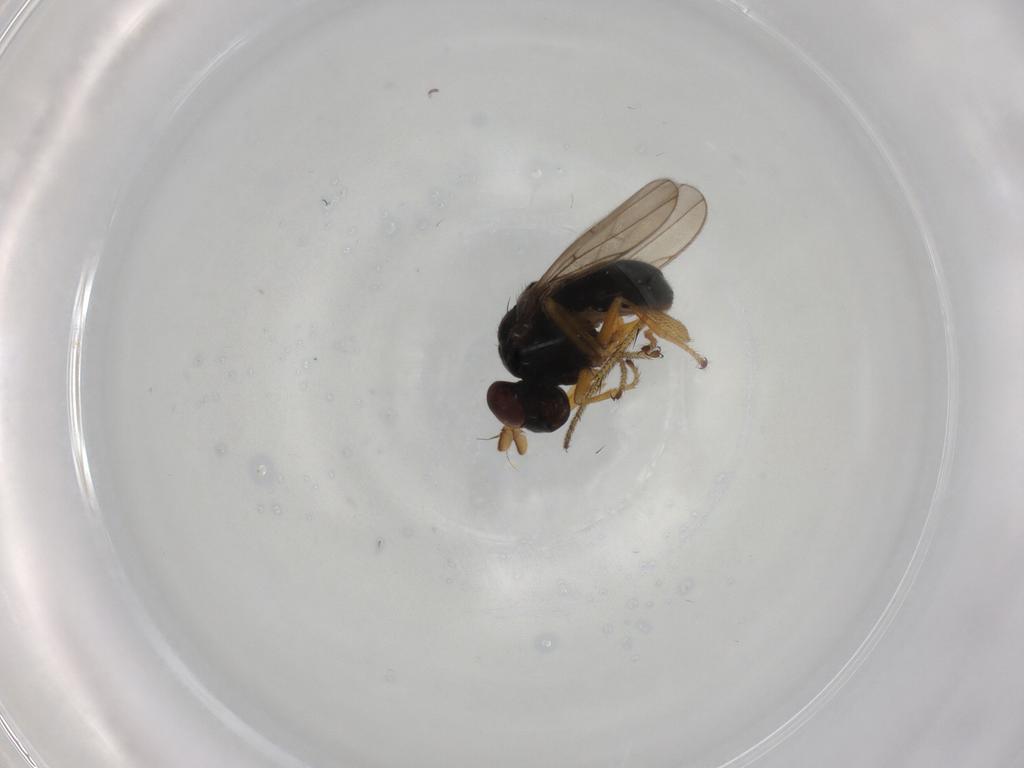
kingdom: Animalia
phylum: Arthropoda
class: Insecta
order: Diptera
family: Ephydridae
